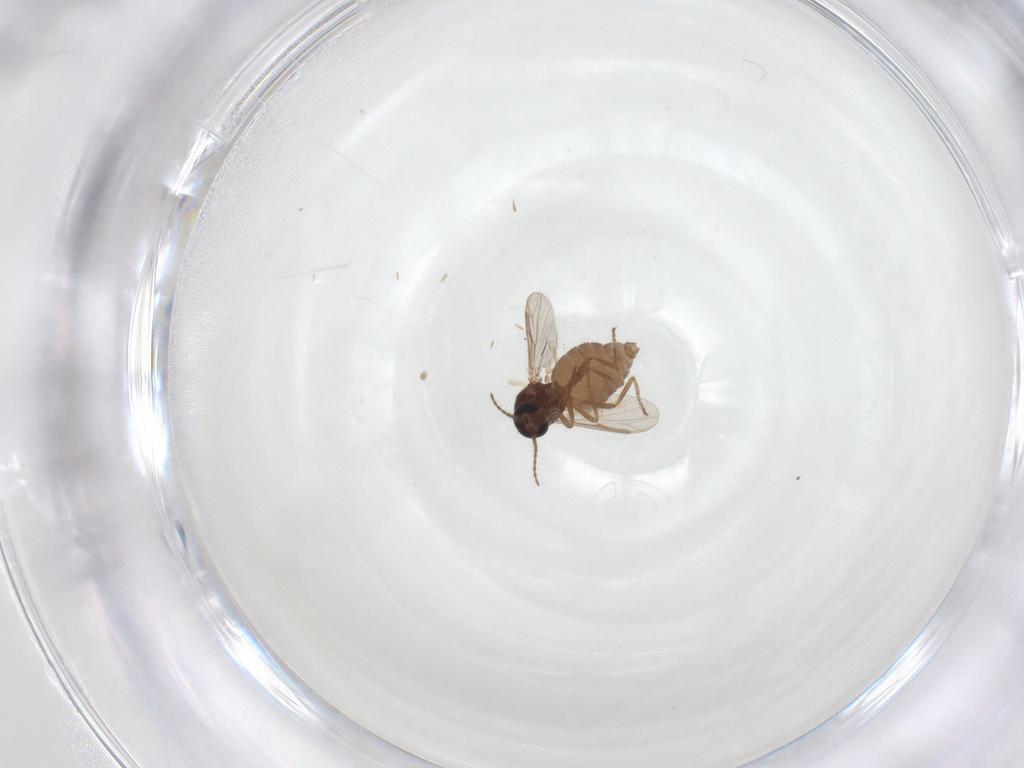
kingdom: Animalia
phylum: Arthropoda
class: Insecta
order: Diptera
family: Ceratopogonidae
